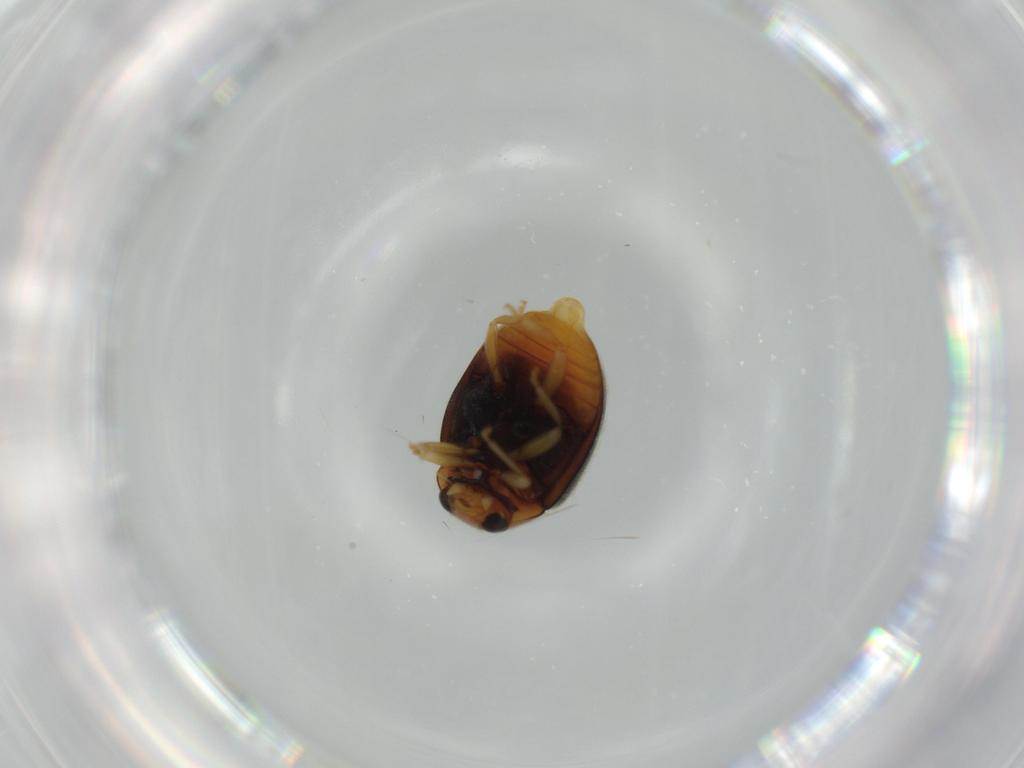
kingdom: Animalia
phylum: Arthropoda
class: Insecta
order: Coleoptera
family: Coccinellidae
